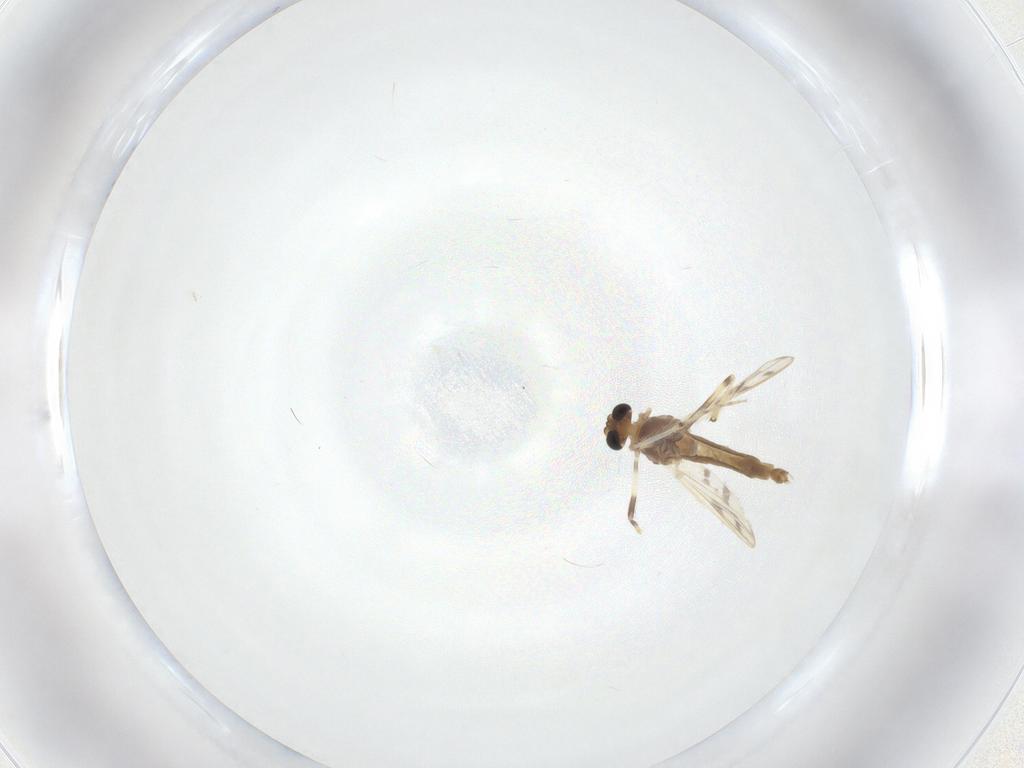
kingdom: Animalia
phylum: Arthropoda
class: Insecta
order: Diptera
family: Chironomidae
